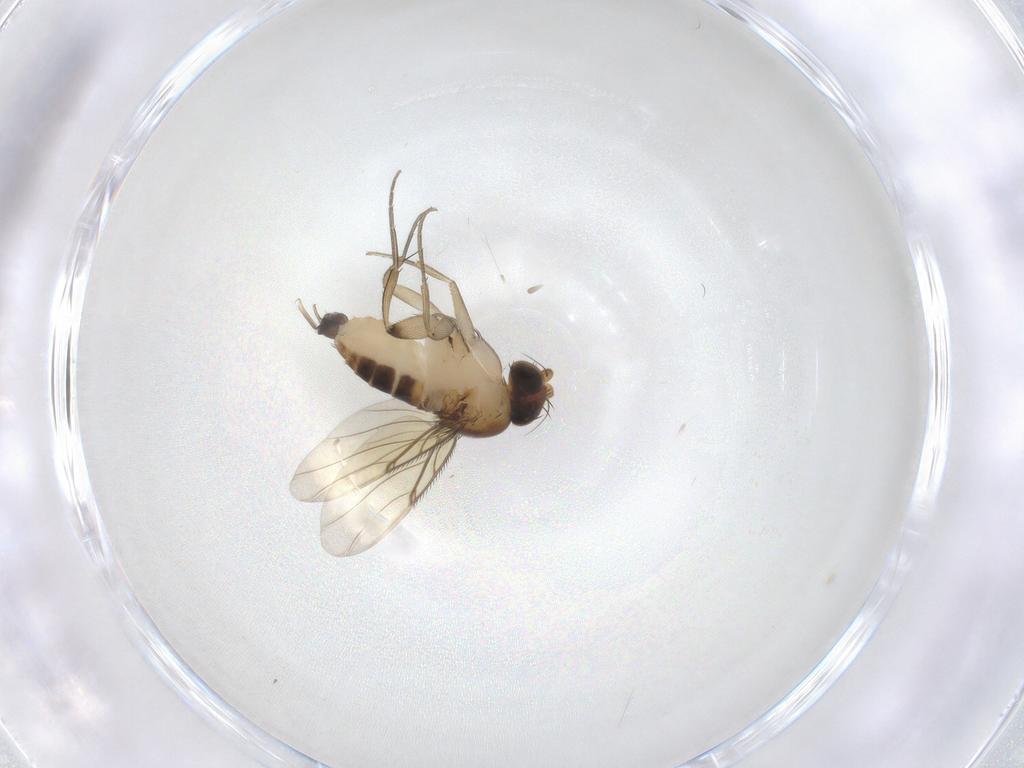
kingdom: Animalia
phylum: Arthropoda
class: Insecta
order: Diptera
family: Phoridae
